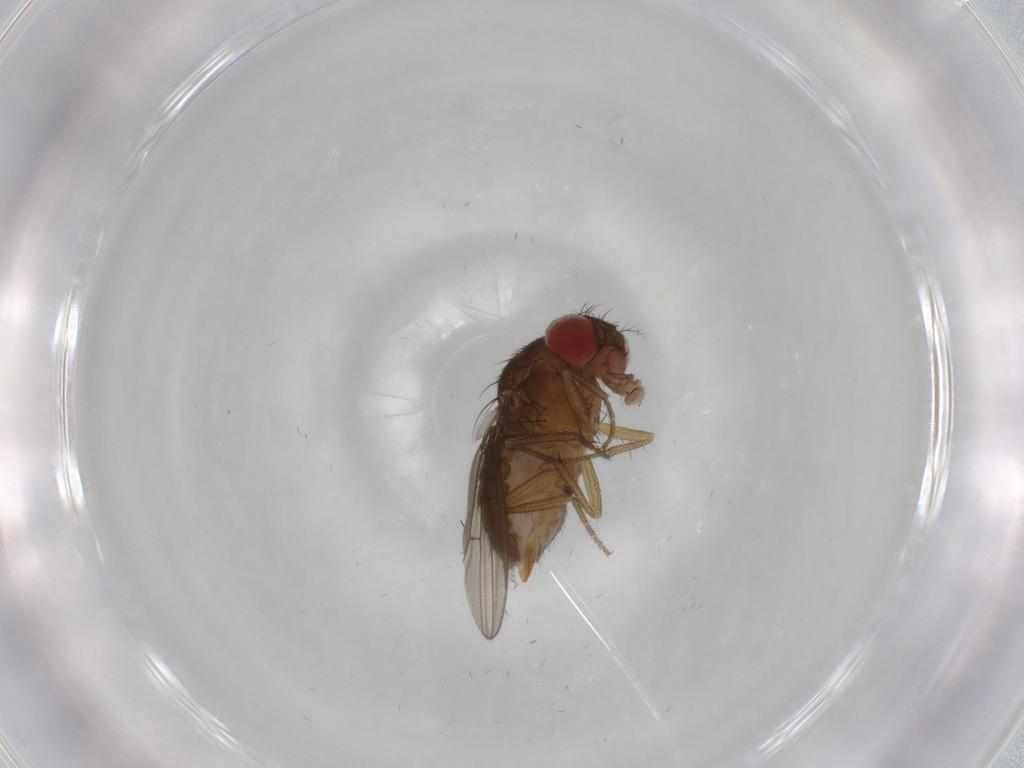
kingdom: Animalia
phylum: Arthropoda
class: Insecta
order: Diptera
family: Drosophilidae
